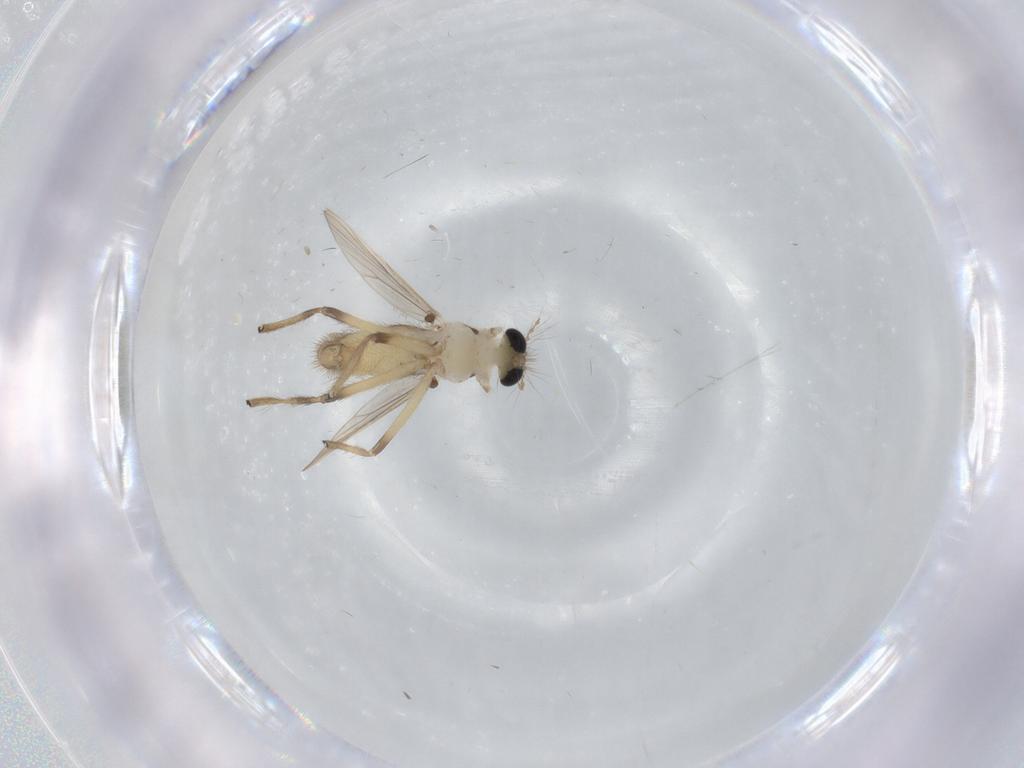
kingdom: Animalia
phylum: Arthropoda
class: Insecta
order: Diptera
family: Chironomidae
